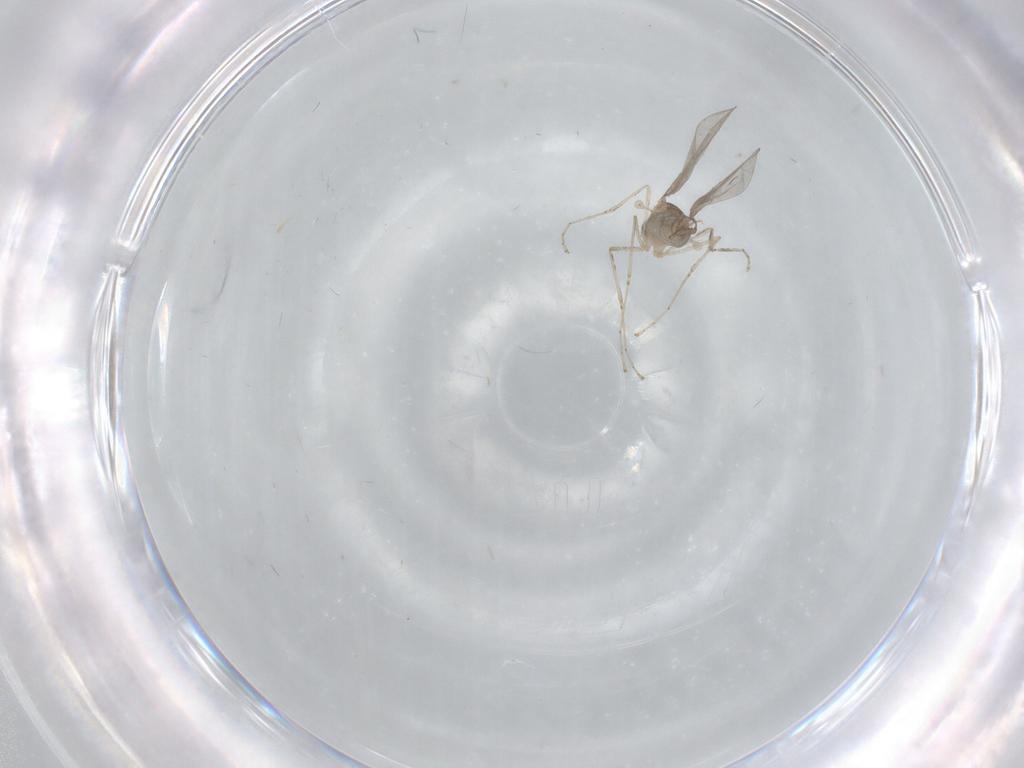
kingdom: Animalia
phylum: Arthropoda
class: Insecta
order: Diptera
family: Cecidomyiidae
